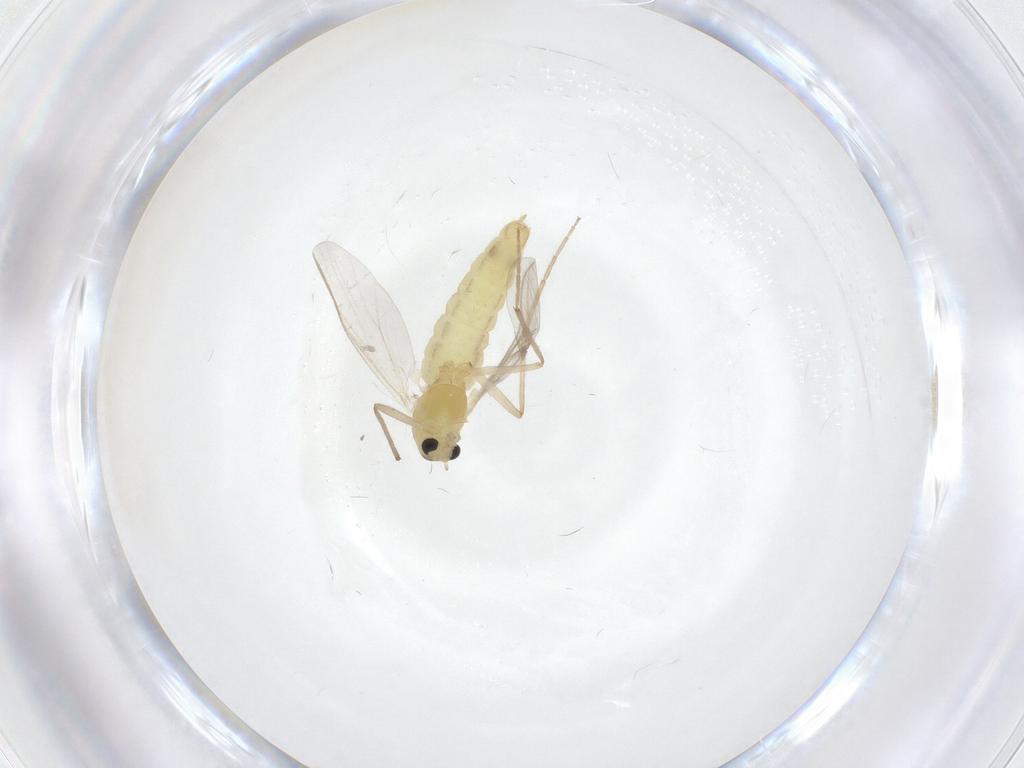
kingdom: Animalia
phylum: Arthropoda
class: Insecta
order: Diptera
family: Chironomidae
